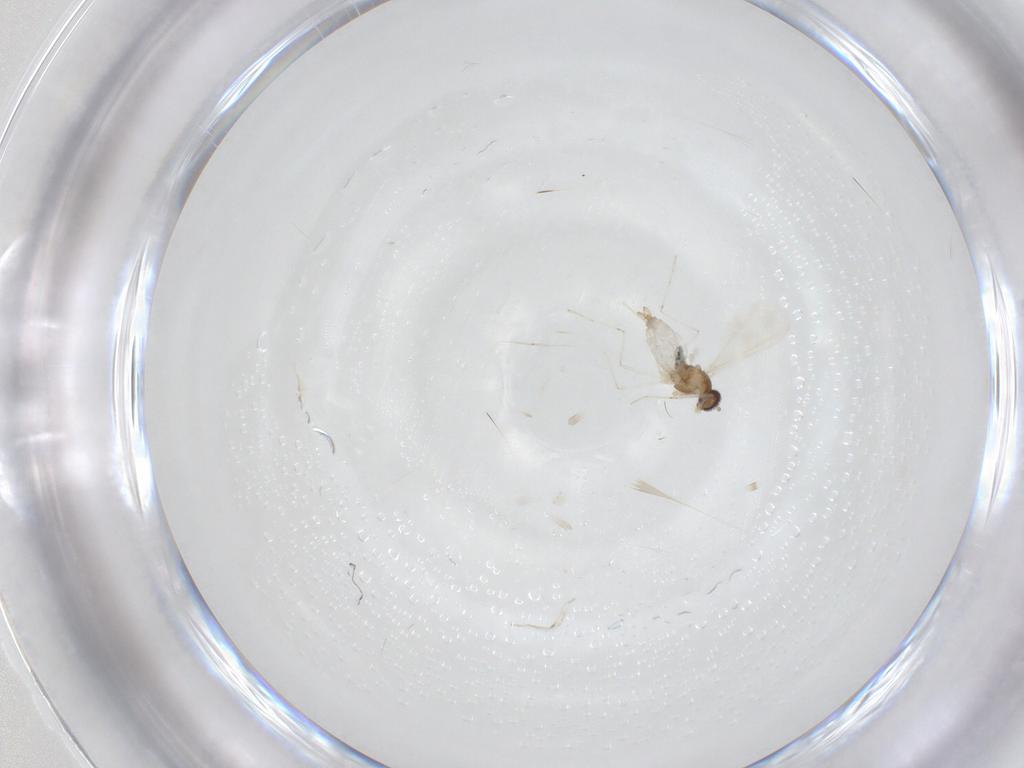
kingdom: Animalia
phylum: Arthropoda
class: Insecta
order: Diptera
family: Cecidomyiidae
